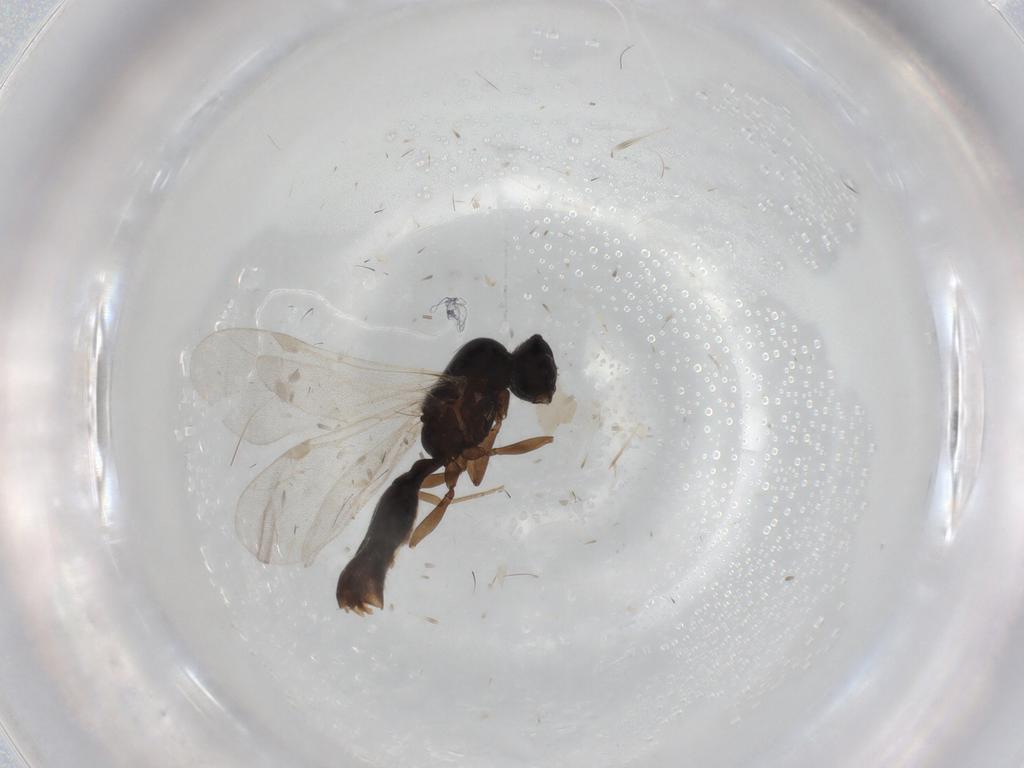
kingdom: Animalia
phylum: Arthropoda
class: Insecta
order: Hymenoptera
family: Formicidae
